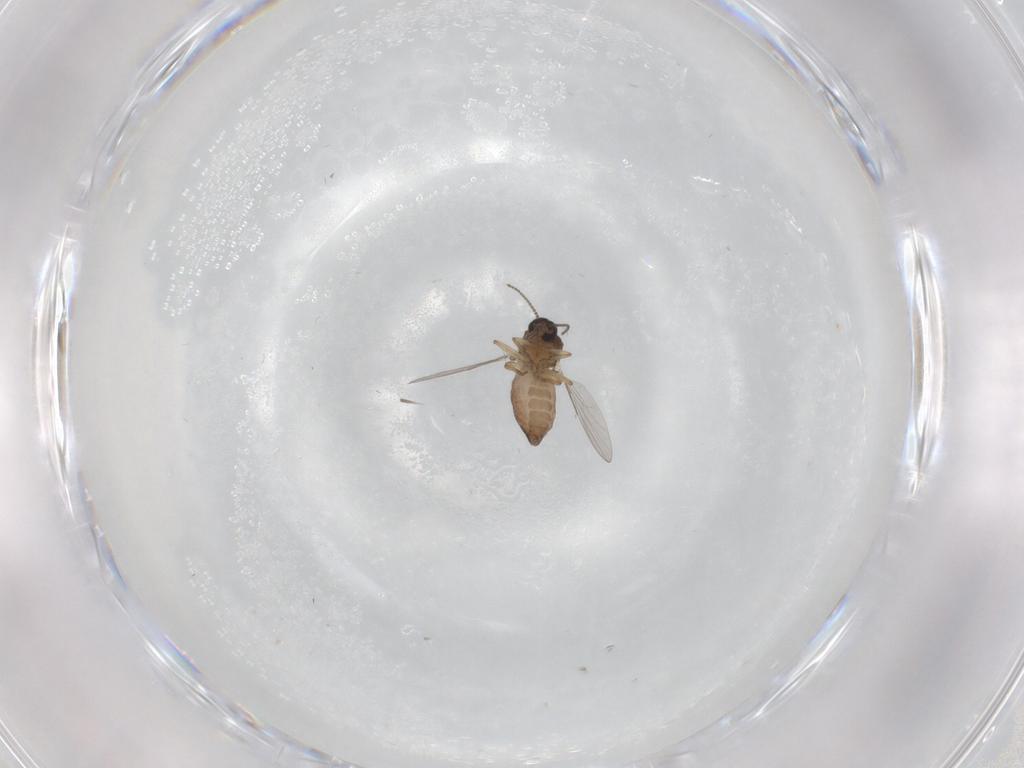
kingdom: Animalia
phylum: Arthropoda
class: Insecta
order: Diptera
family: Ceratopogonidae
